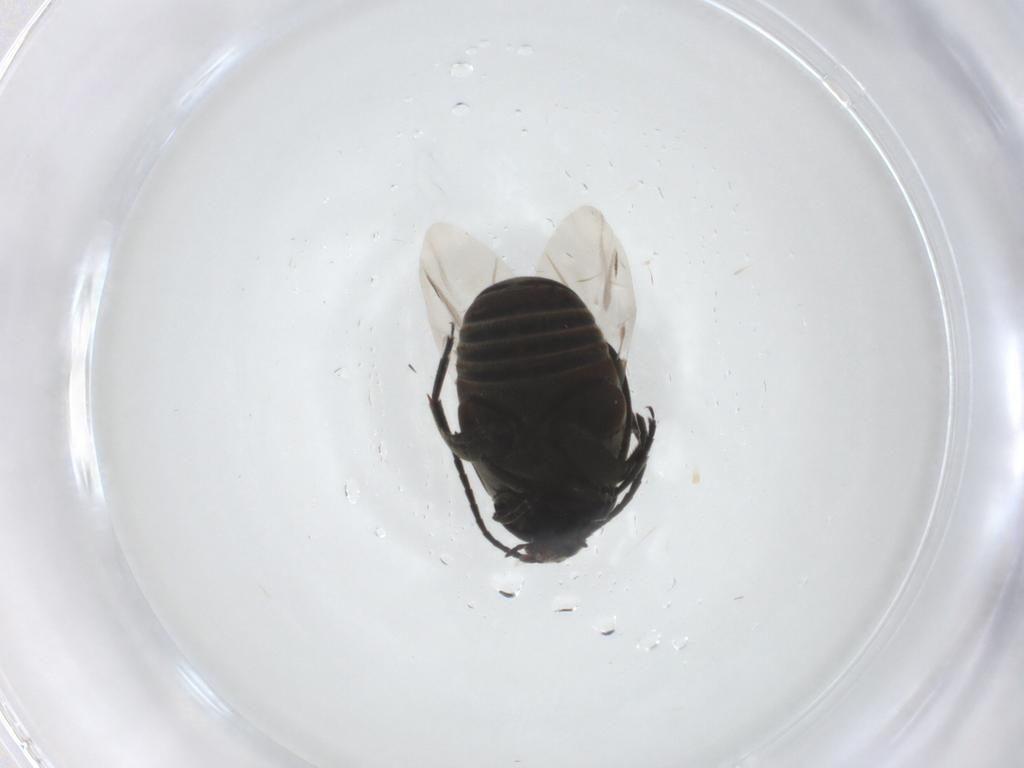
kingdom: Animalia
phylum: Arthropoda
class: Insecta
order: Coleoptera
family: Chrysomelidae
